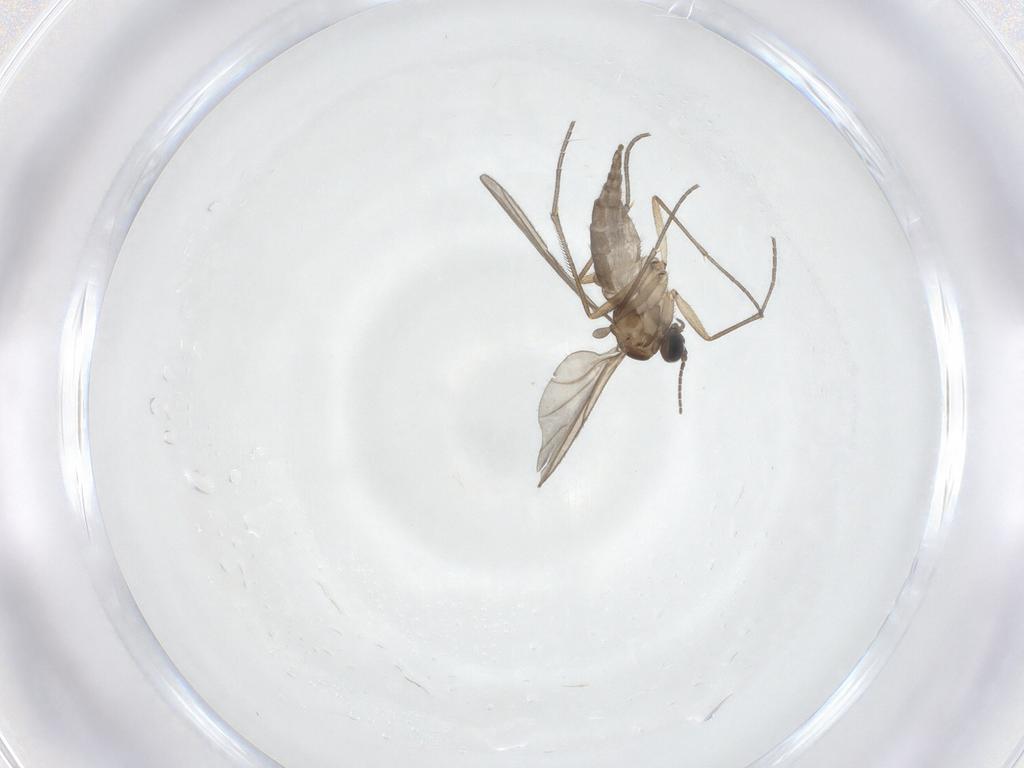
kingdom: Animalia
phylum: Arthropoda
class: Insecta
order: Diptera
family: Sciaridae
